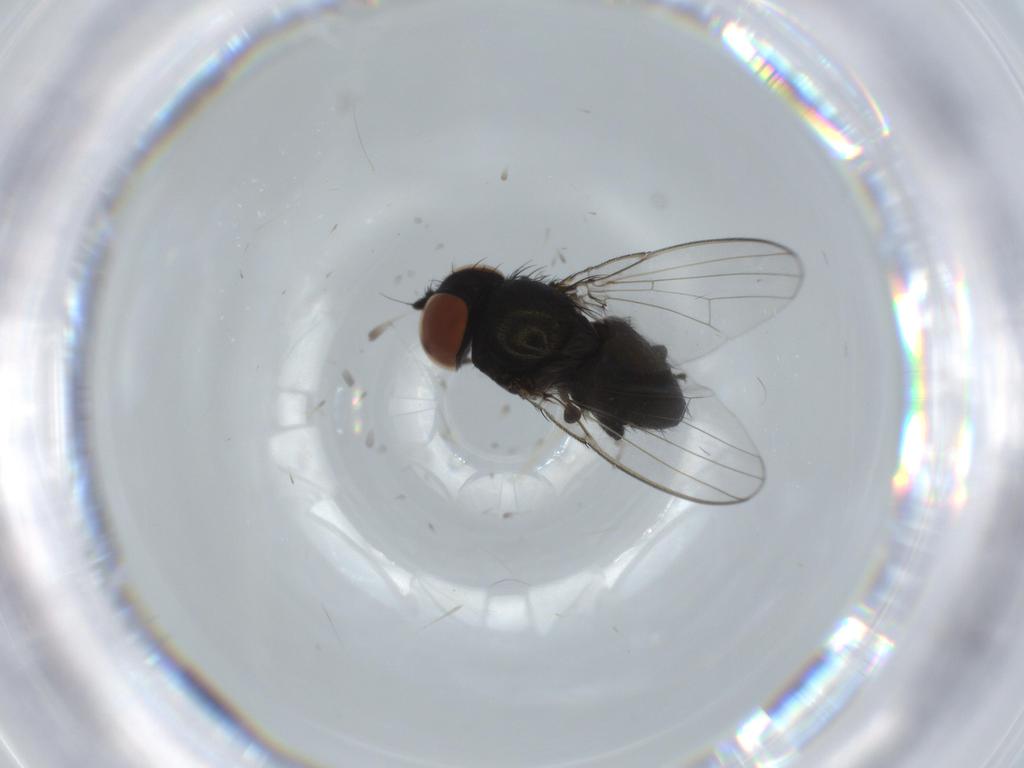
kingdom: Animalia
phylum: Arthropoda
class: Insecta
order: Diptera
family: Milichiidae
